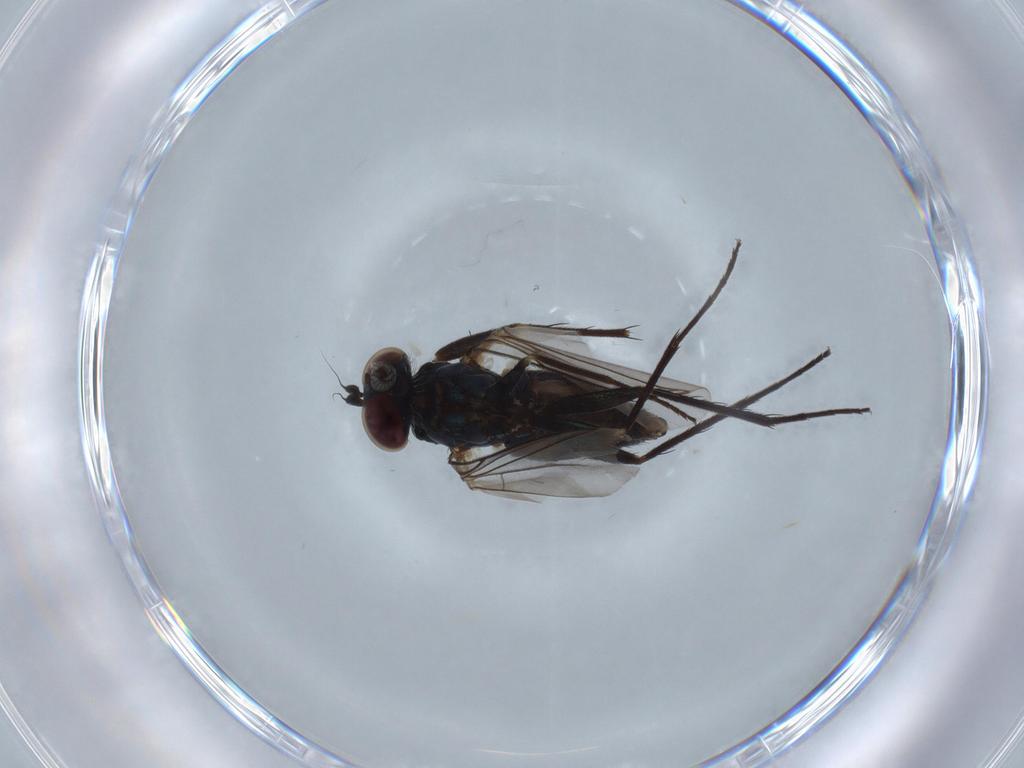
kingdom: Animalia
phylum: Arthropoda
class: Insecta
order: Diptera
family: Dolichopodidae
